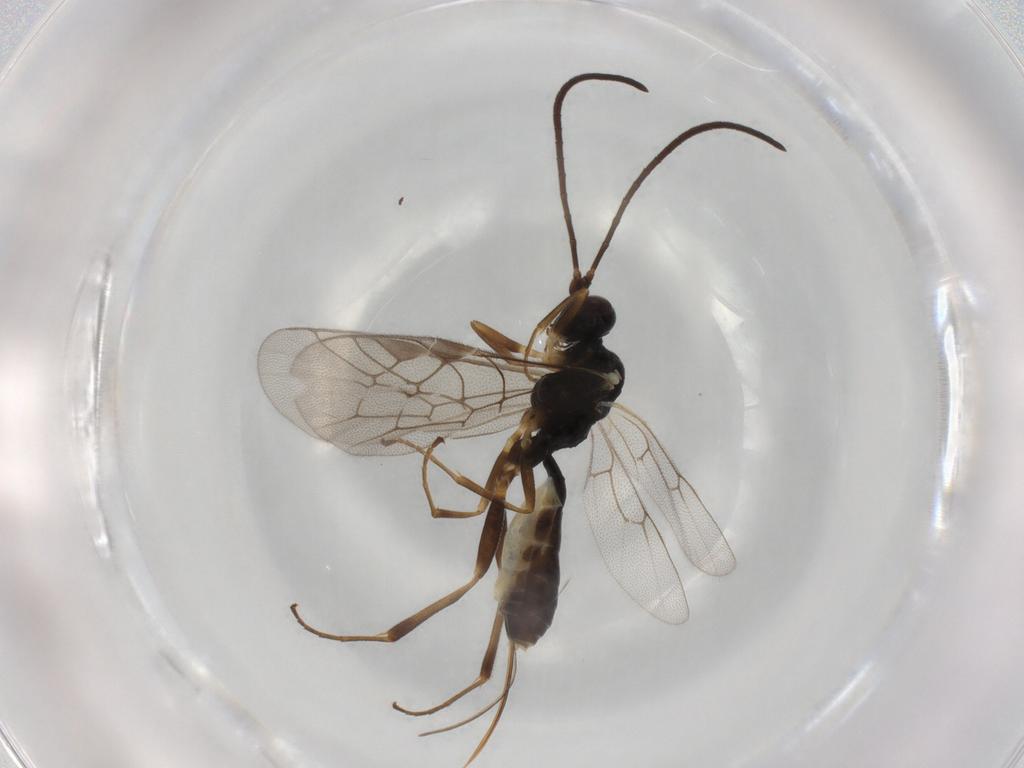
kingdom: Animalia
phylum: Arthropoda
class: Insecta
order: Hymenoptera
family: Ichneumonidae
